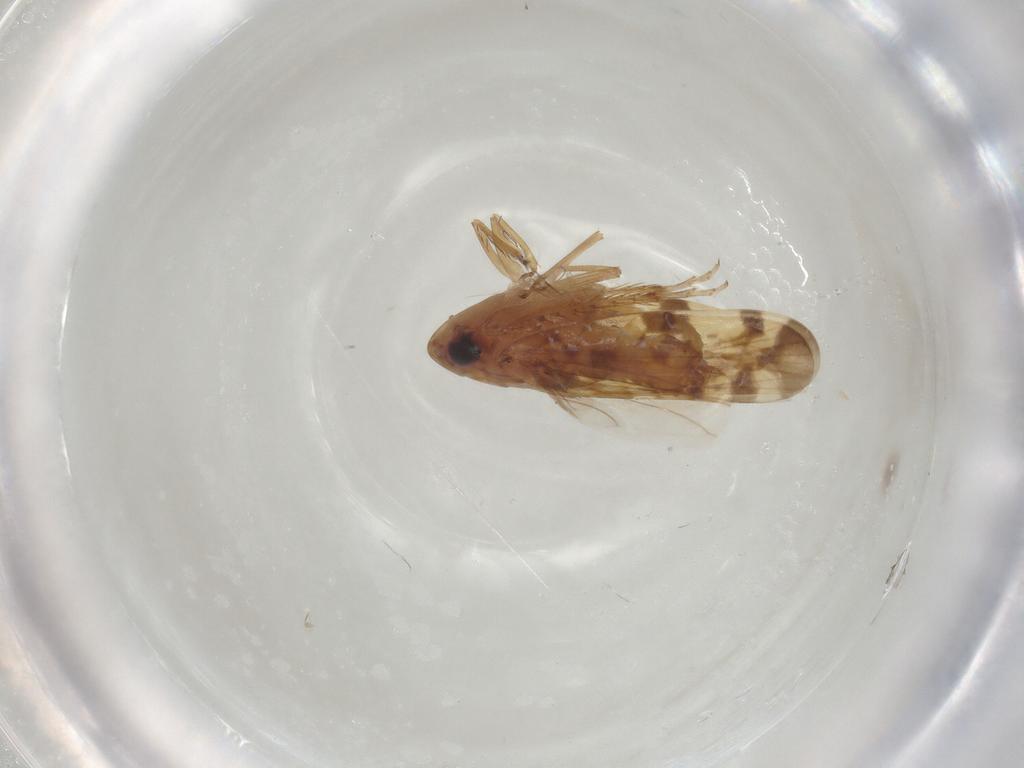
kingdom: Animalia
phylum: Arthropoda
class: Insecta
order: Hemiptera
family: Cicadellidae
